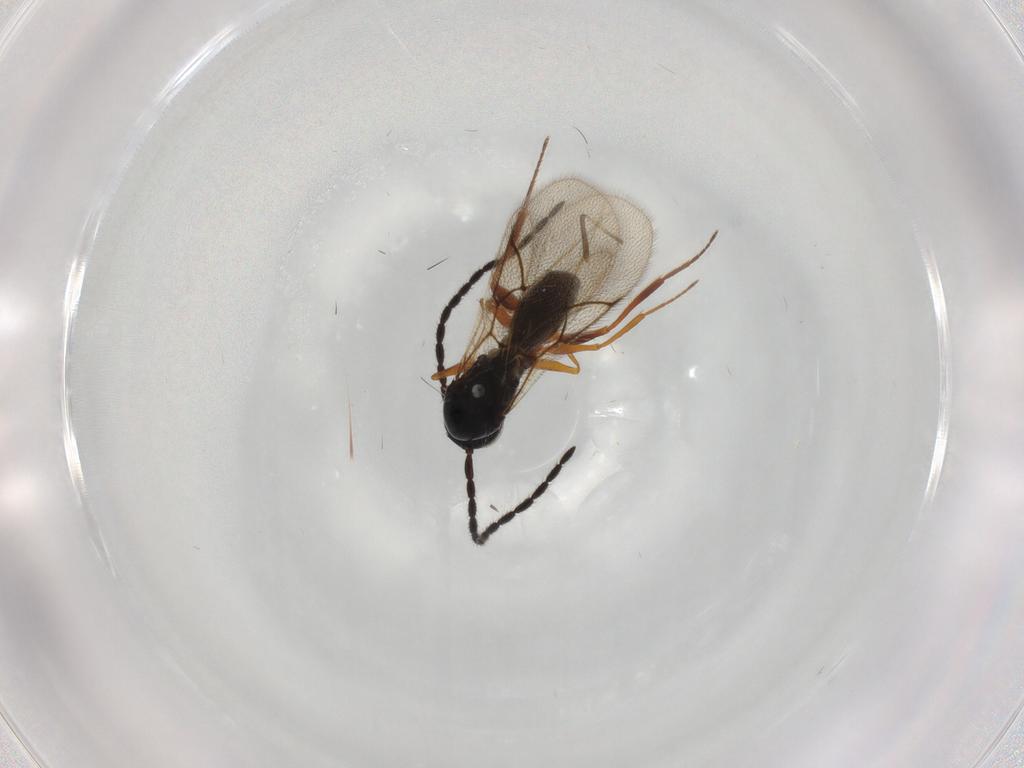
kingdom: Animalia
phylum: Arthropoda
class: Insecta
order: Hymenoptera
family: Figitidae
